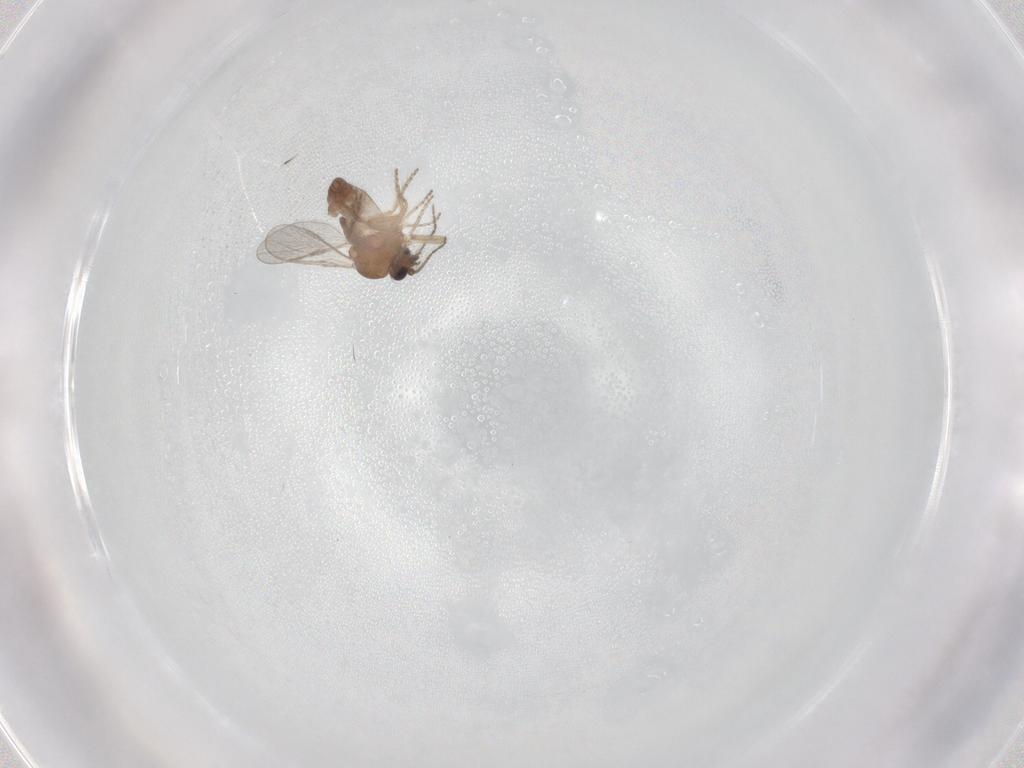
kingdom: Animalia
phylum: Arthropoda
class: Insecta
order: Diptera
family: Ceratopogonidae
